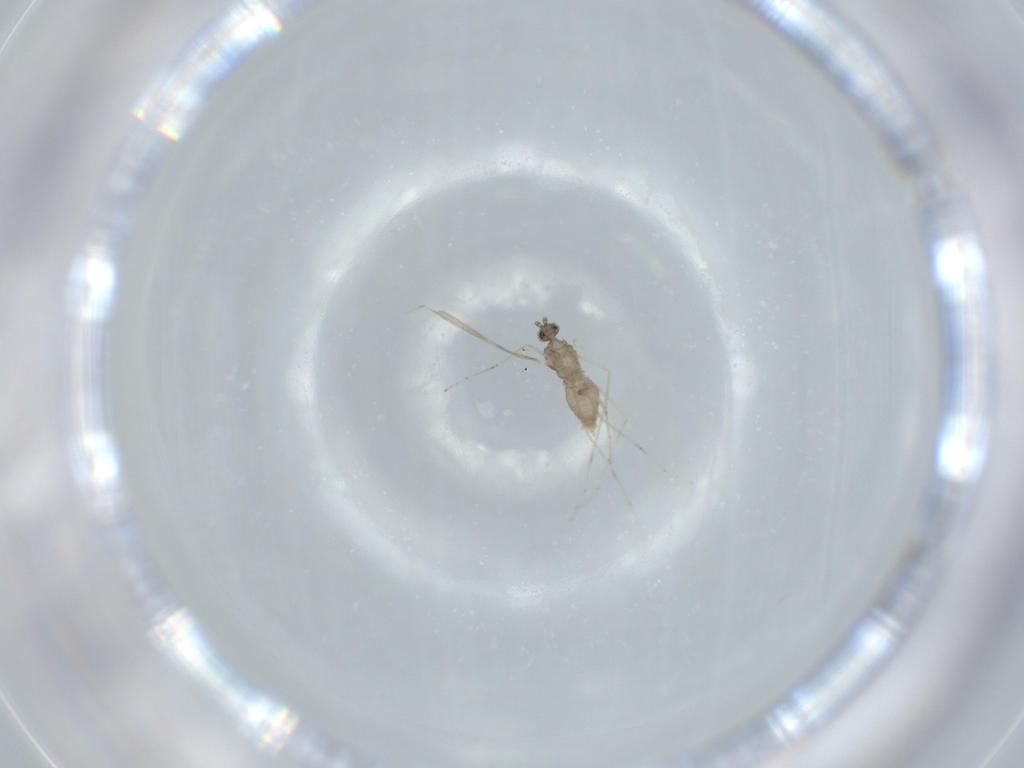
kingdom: Animalia
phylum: Arthropoda
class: Insecta
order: Diptera
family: Cecidomyiidae
